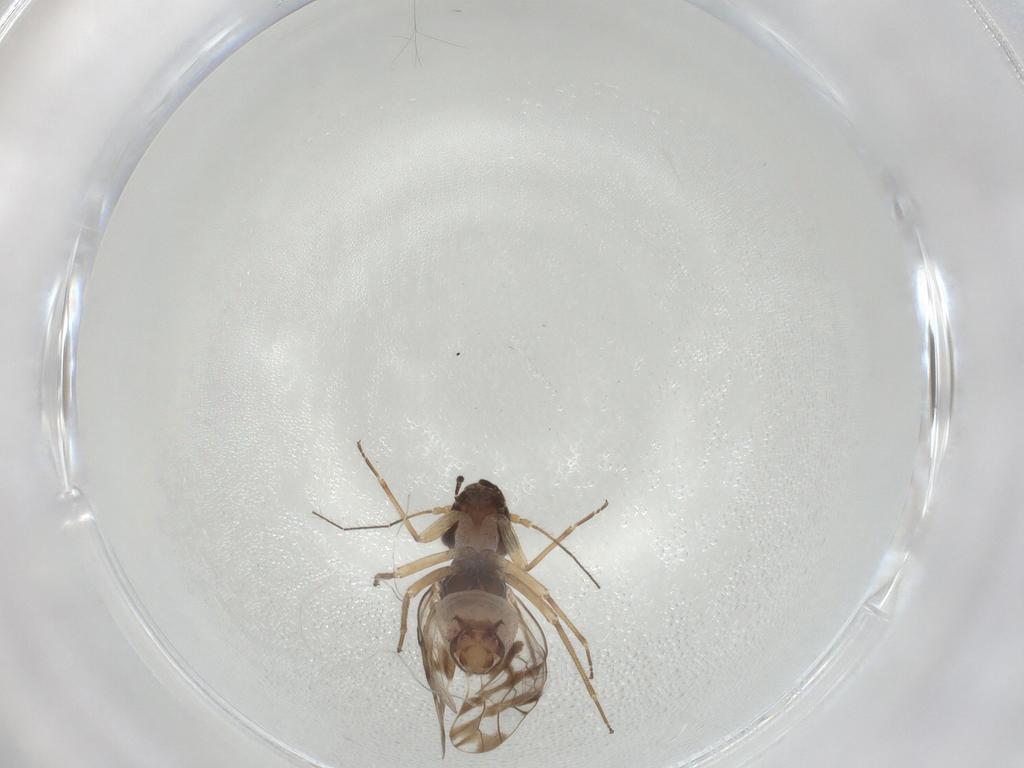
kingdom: Animalia
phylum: Arthropoda
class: Insecta
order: Psocodea
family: Elipsocidae
